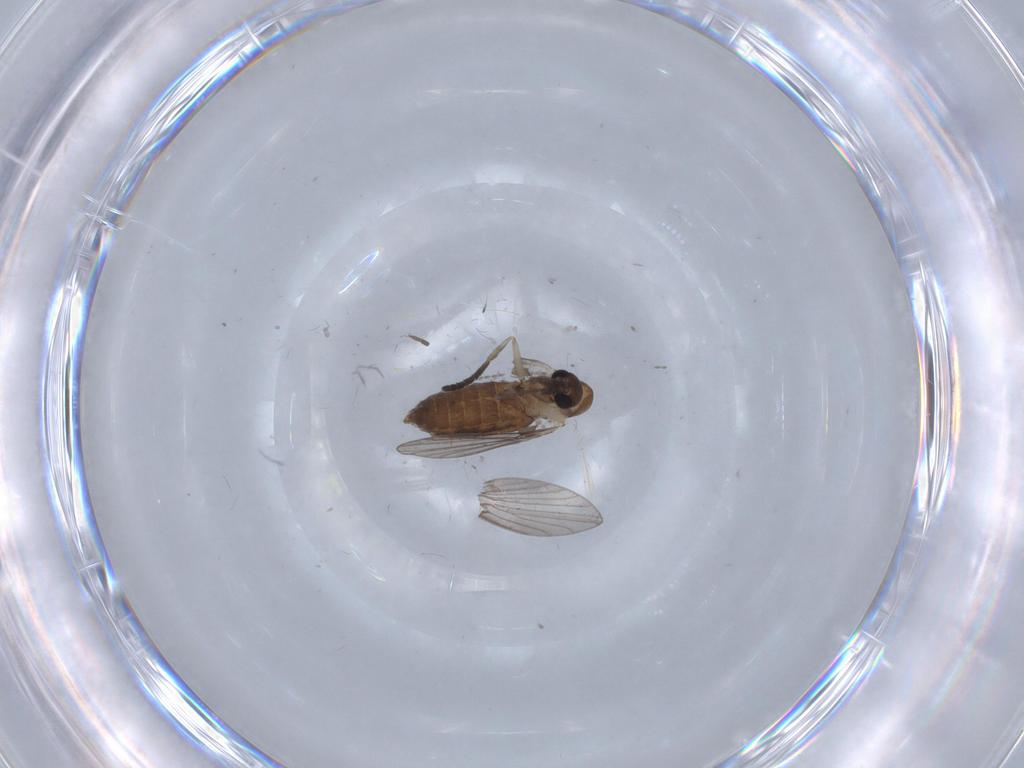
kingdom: Animalia
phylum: Arthropoda
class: Insecta
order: Diptera
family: Psychodidae
